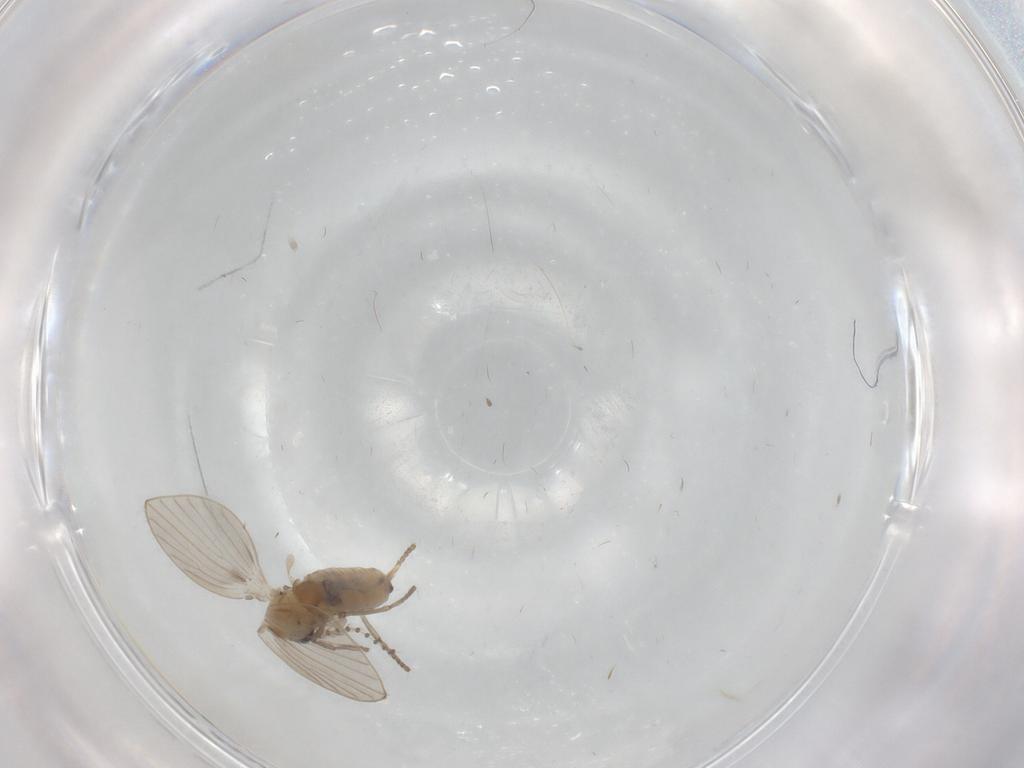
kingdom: Animalia
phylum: Arthropoda
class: Insecta
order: Diptera
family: Psychodidae
